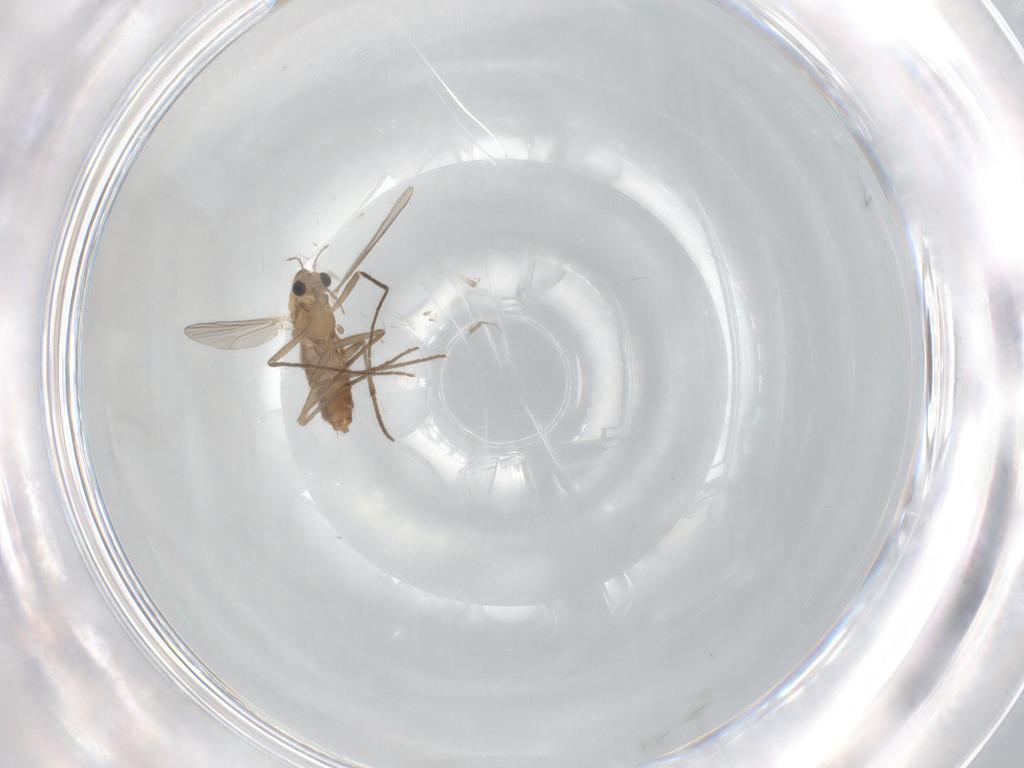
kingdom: Animalia
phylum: Arthropoda
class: Insecta
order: Diptera
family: Chironomidae
